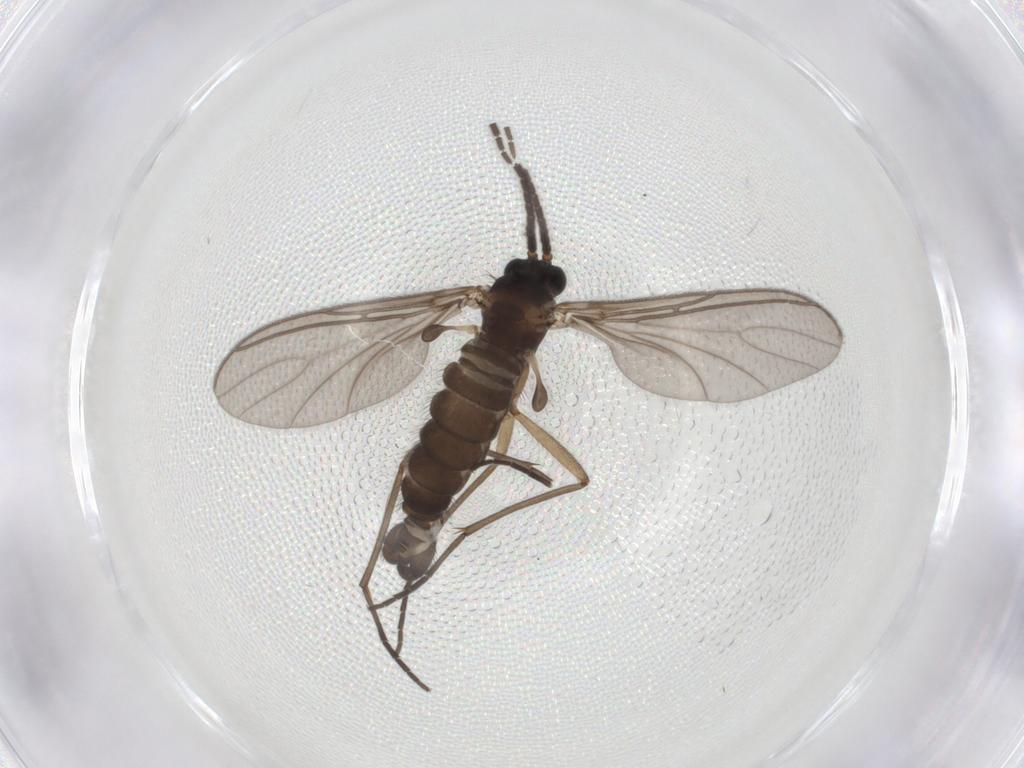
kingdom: Animalia
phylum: Arthropoda
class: Insecta
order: Diptera
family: Sciaridae
